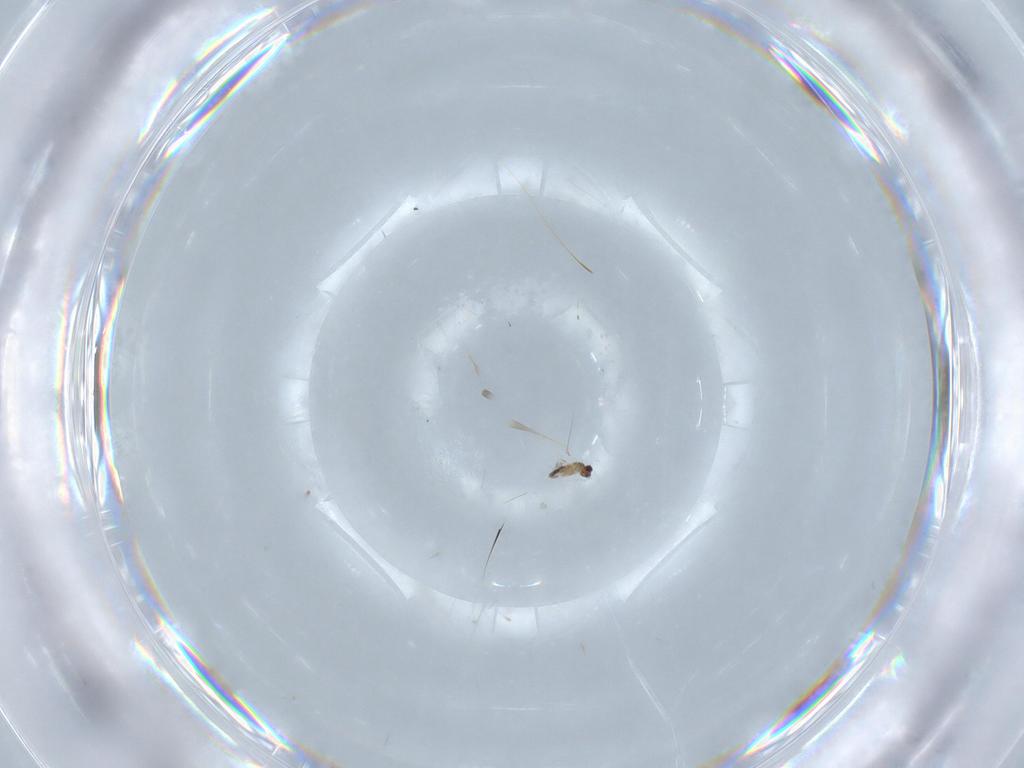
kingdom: Animalia
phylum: Arthropoda
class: Insecta
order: Hymenoptera
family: Mymaridae
